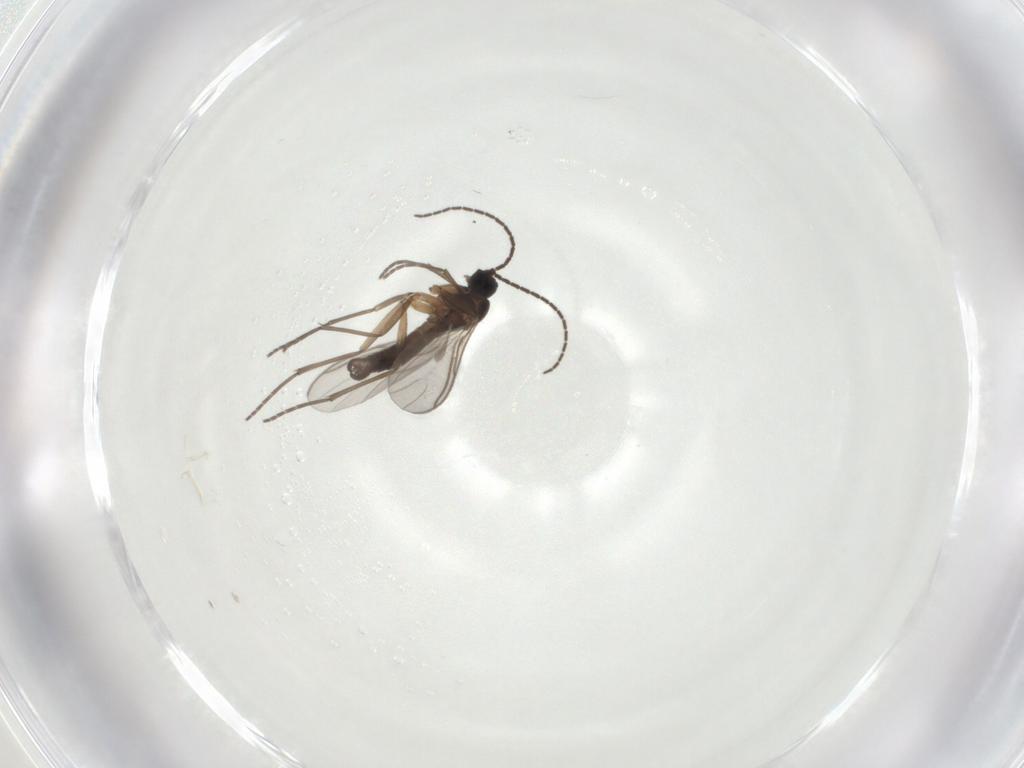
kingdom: Animalia
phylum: Arthropoda
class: Insecta
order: Diptera
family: Sciaridae
